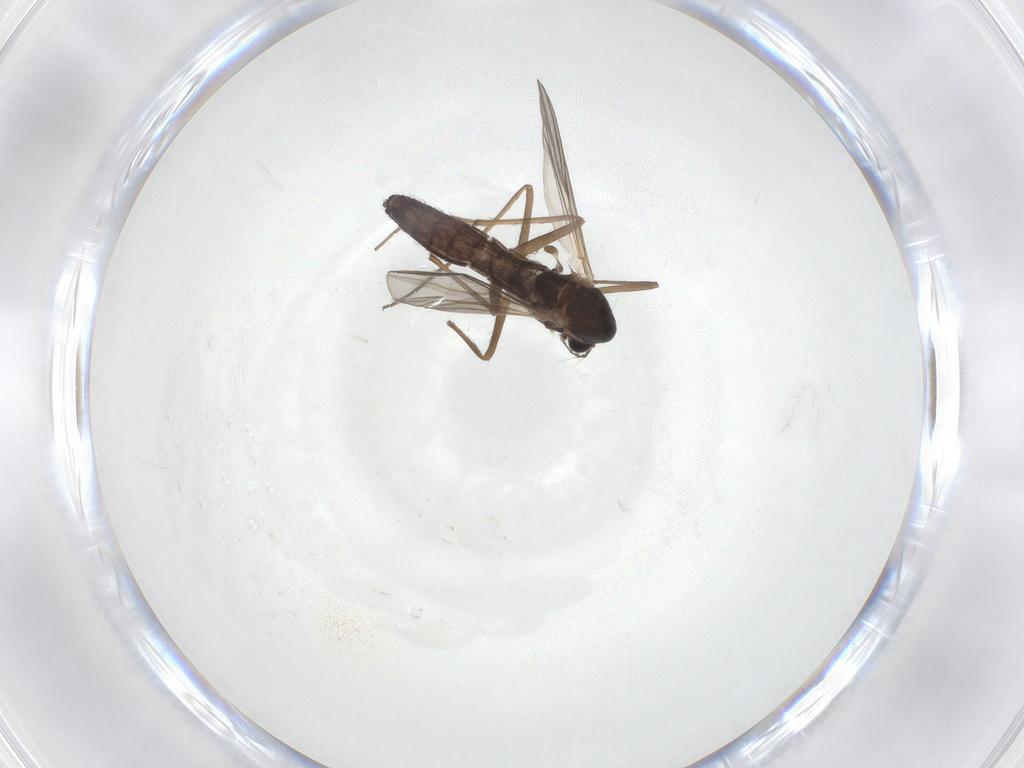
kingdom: Animalia
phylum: Arthropoda
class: Insecta
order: Diptera
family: Chironomidae
